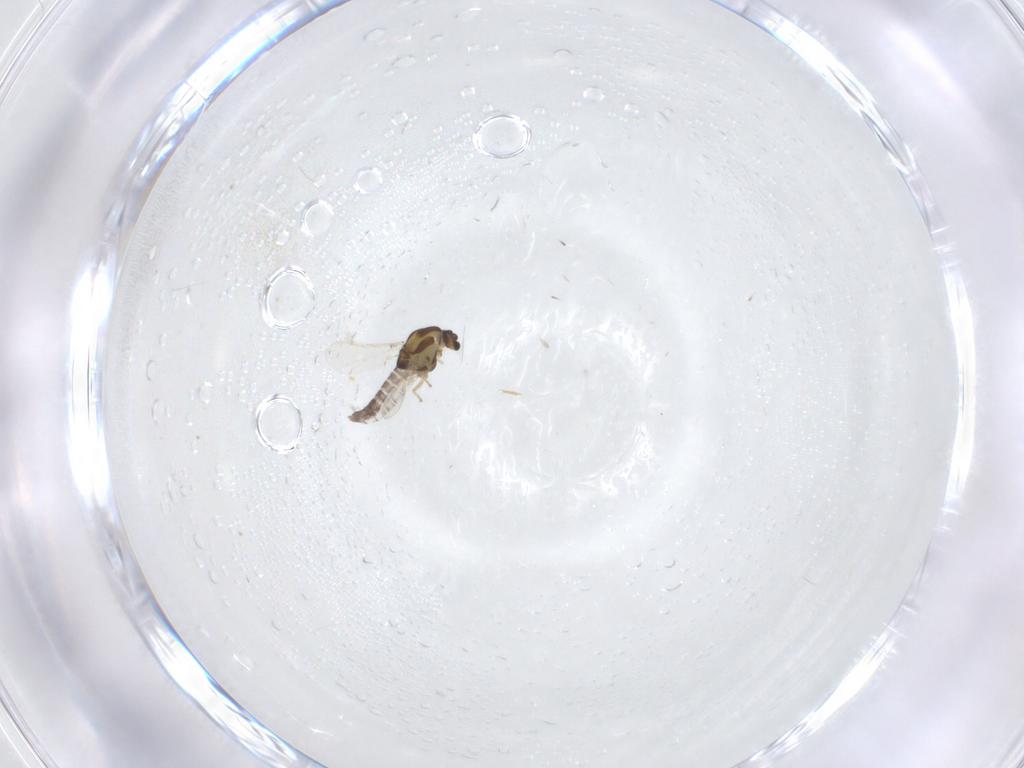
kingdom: Animalia
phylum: Arthropoda
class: Insecta
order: Diptera
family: Chironomidae
